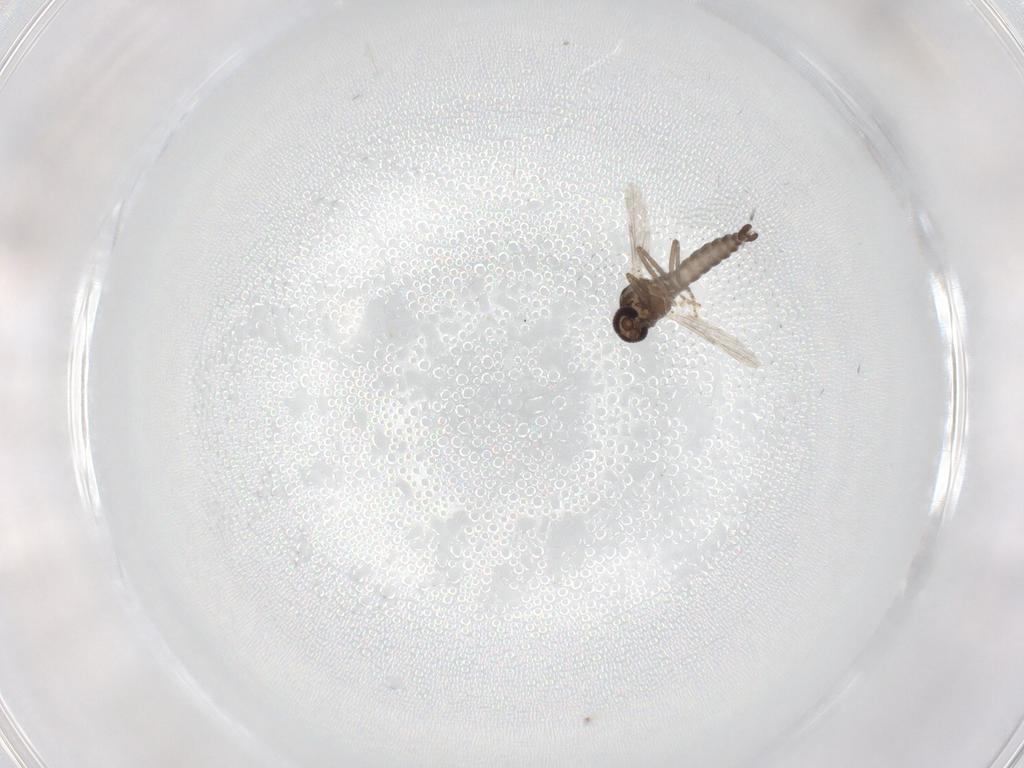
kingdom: Animalia
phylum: Arthropoda
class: Insecta
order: Diptera
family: Ceratopogonidae
